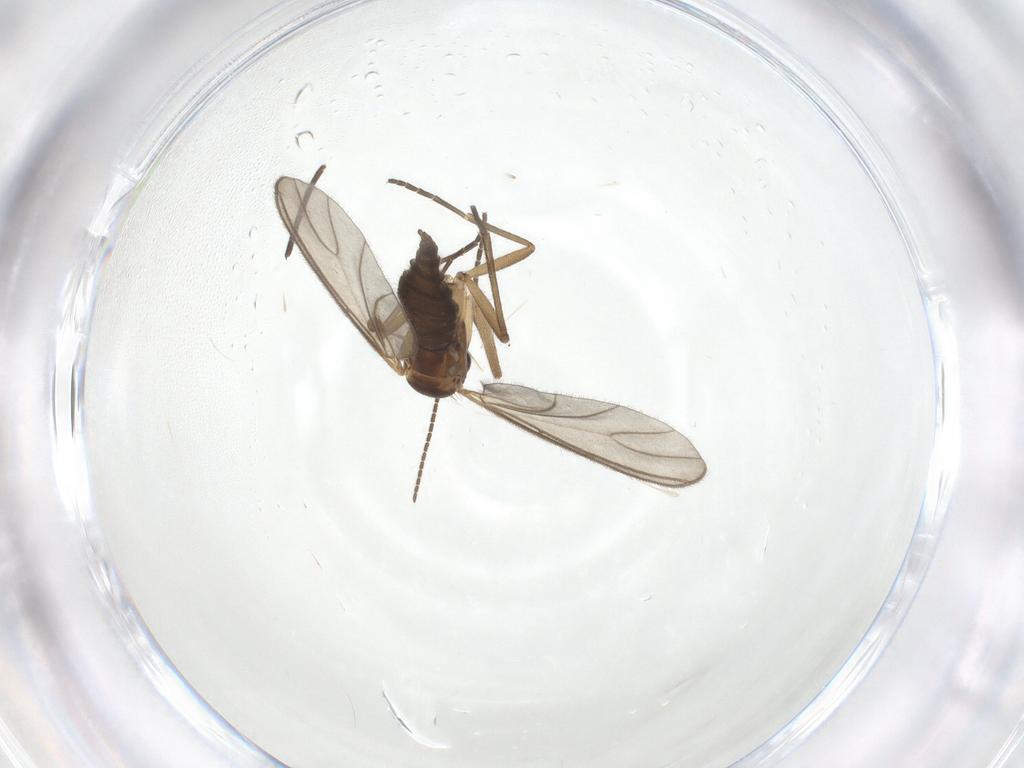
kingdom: Animalia
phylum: Arthropoda
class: Insecta
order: Diptera
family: Sciaridae
